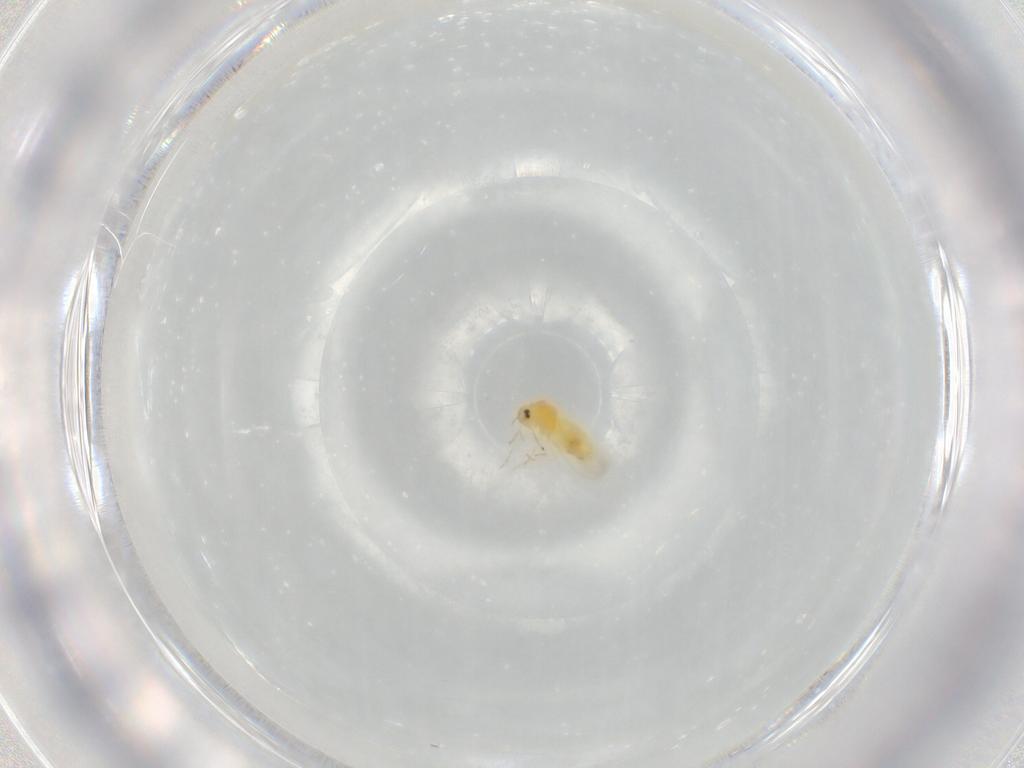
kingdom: Animalia
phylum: Arthropoda
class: Insecta
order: Hemiptera
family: Aleyrodidae
